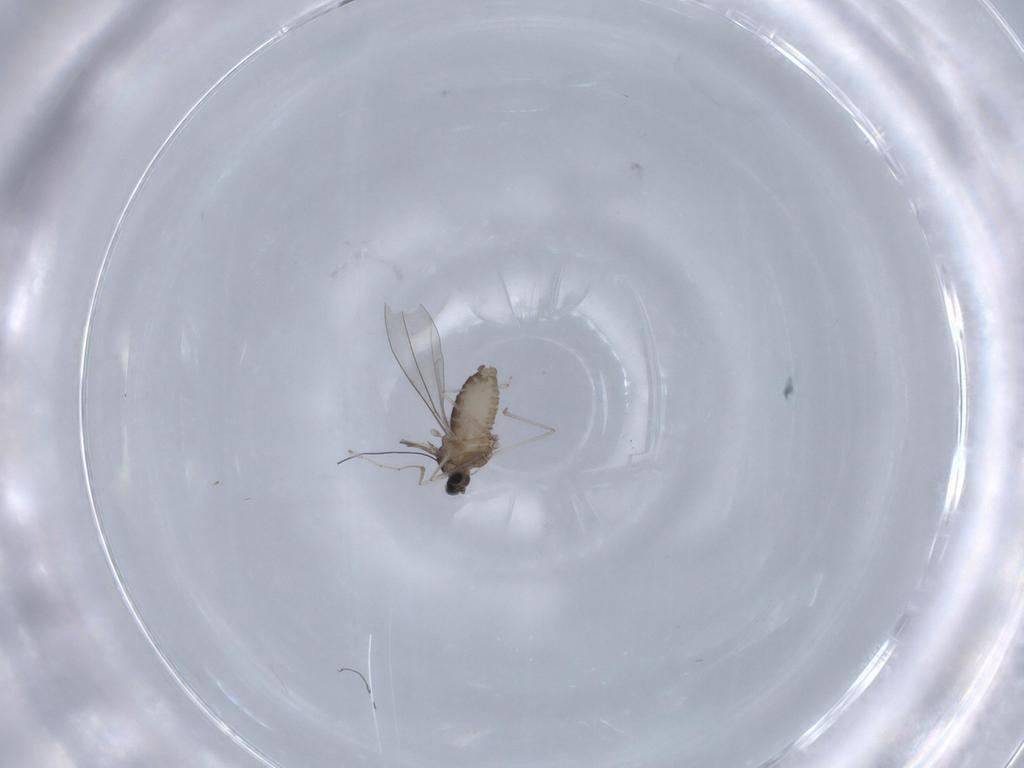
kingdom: Animalia
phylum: Arthropoda
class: Insecta
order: Diptera
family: Cecidomyiidae
